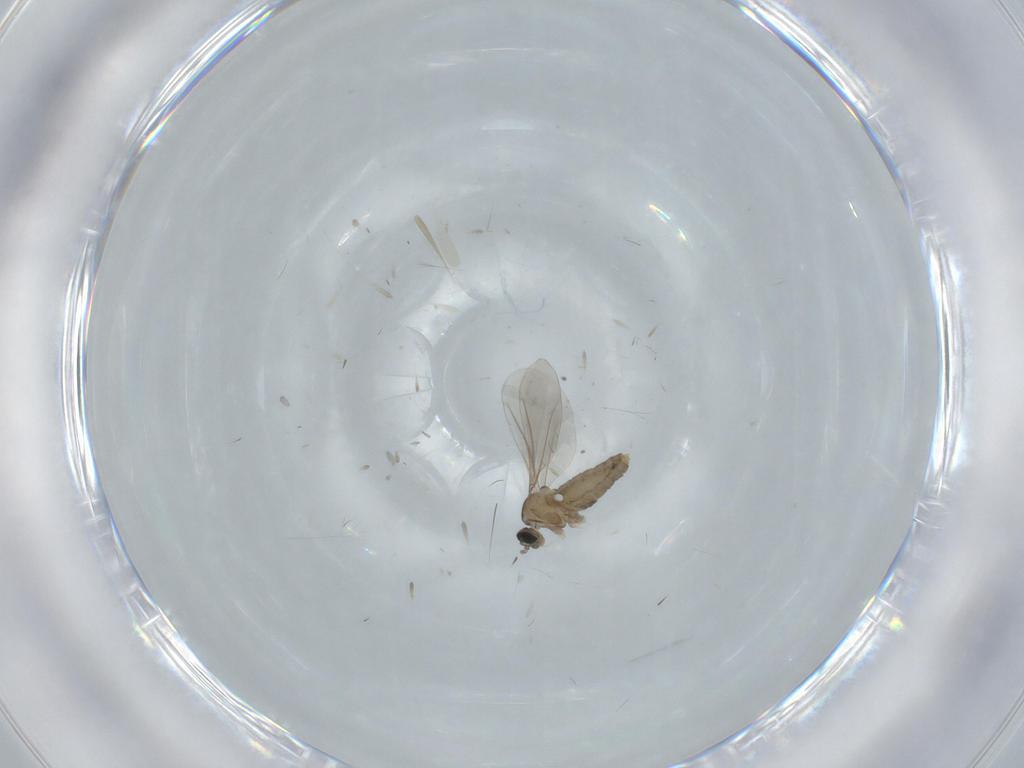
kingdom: Animalia
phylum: Arthropoda
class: Insecta
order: Diptera
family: Cecidomyiidae
